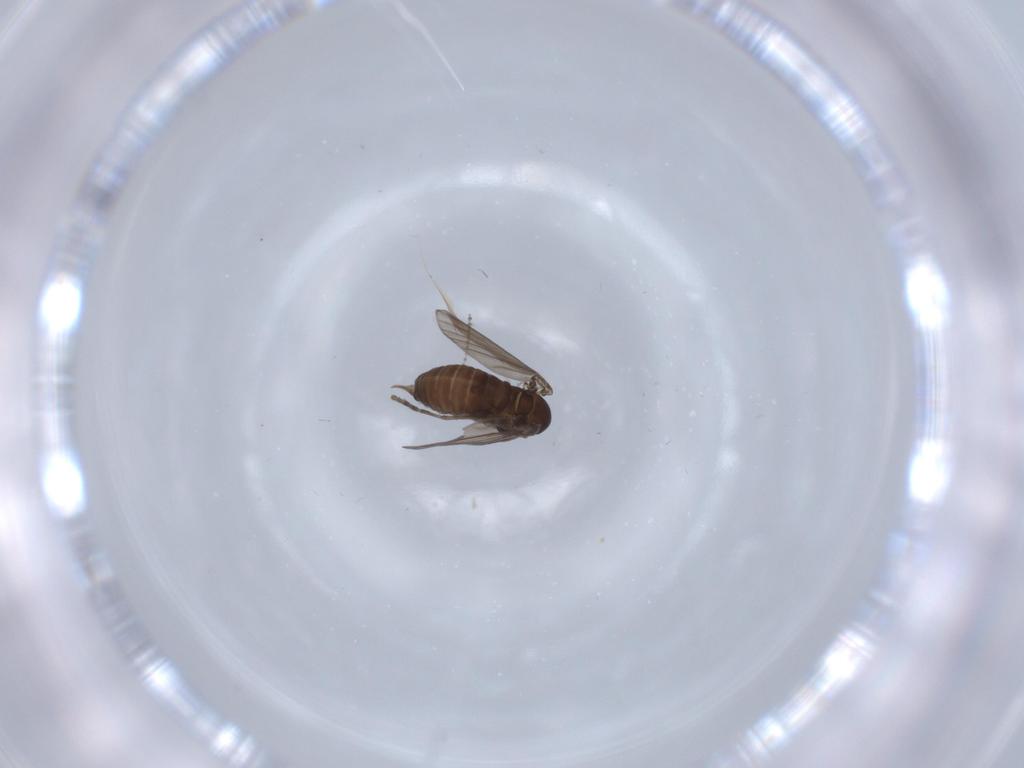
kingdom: Animalia
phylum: Arthropoda
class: Insecta
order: Diptera
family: Psychodidae
